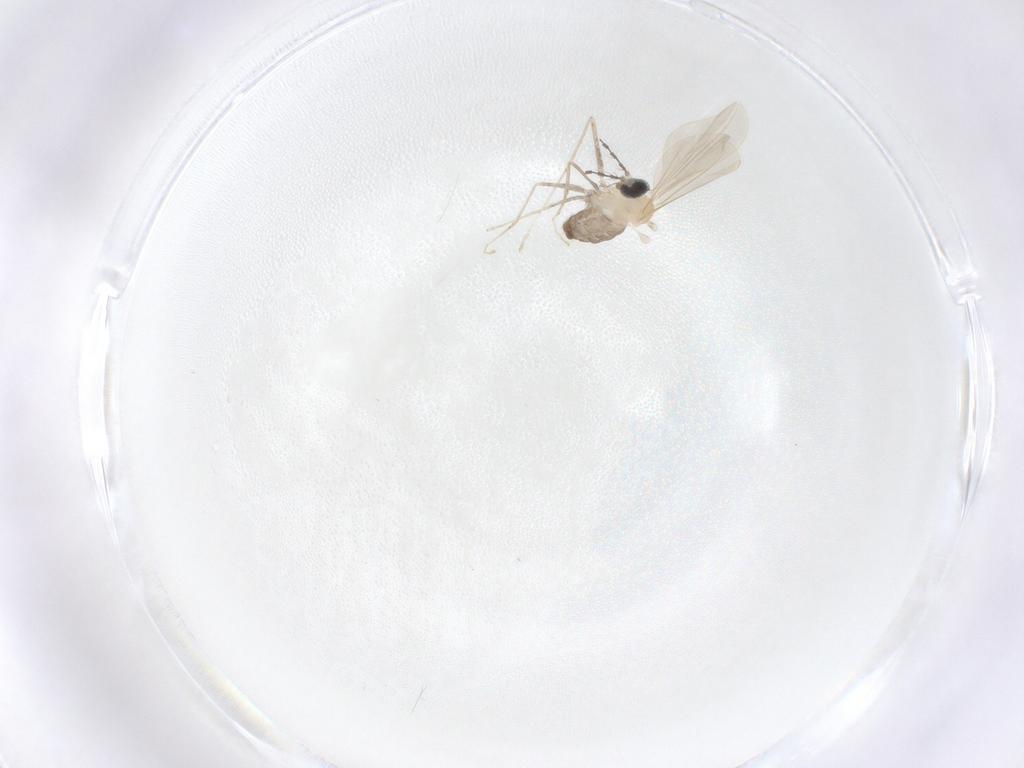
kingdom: Animalia
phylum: Arthropoda
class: Insecta
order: Diptera
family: Cecidomyiidae
